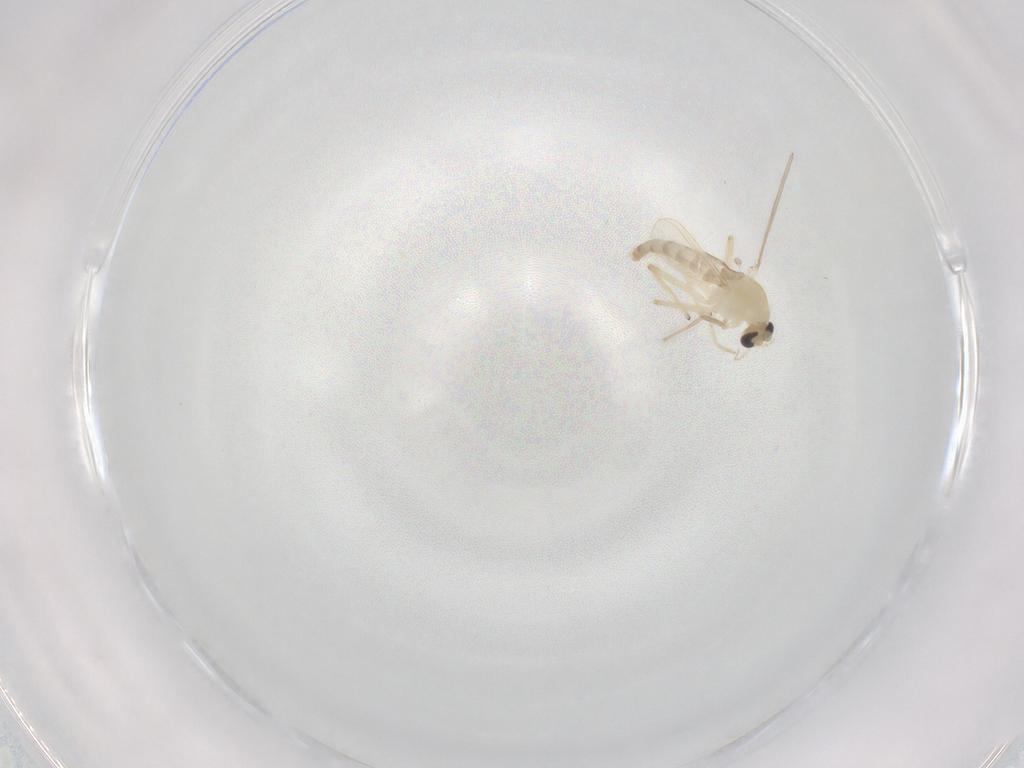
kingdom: Animalia
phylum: Arthropoda
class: Insecta
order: Diptera
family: Chironomidae
